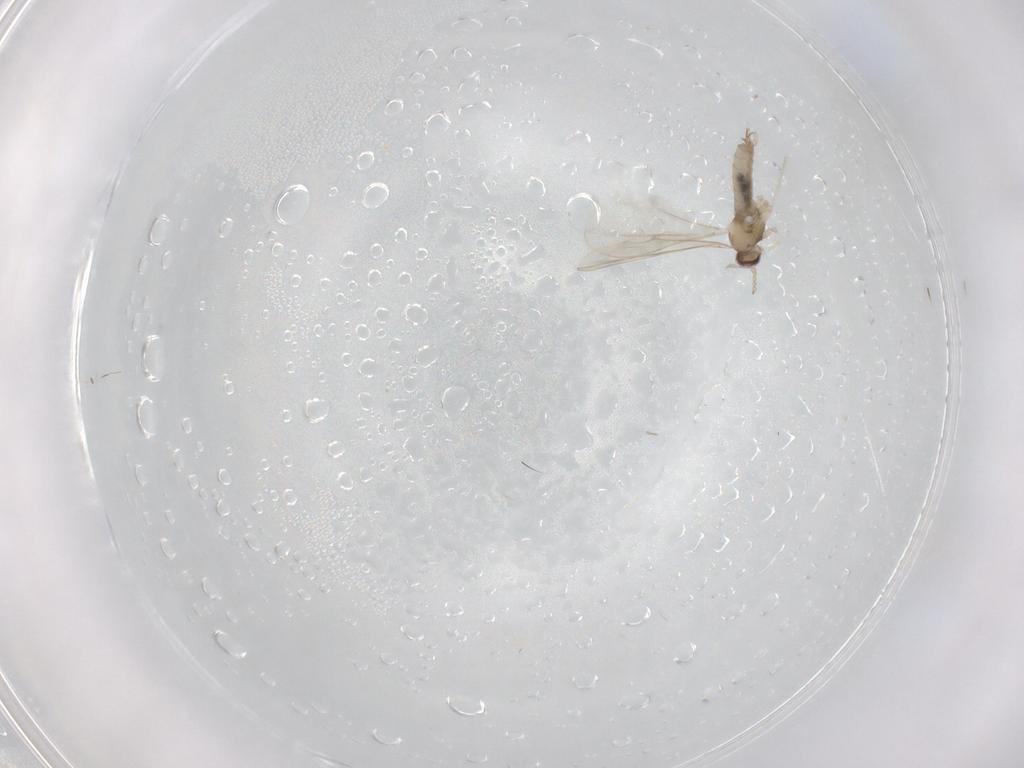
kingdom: Animalia
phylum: Arthropoda
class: Insecta
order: Diptera
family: Cecidomyiidae
